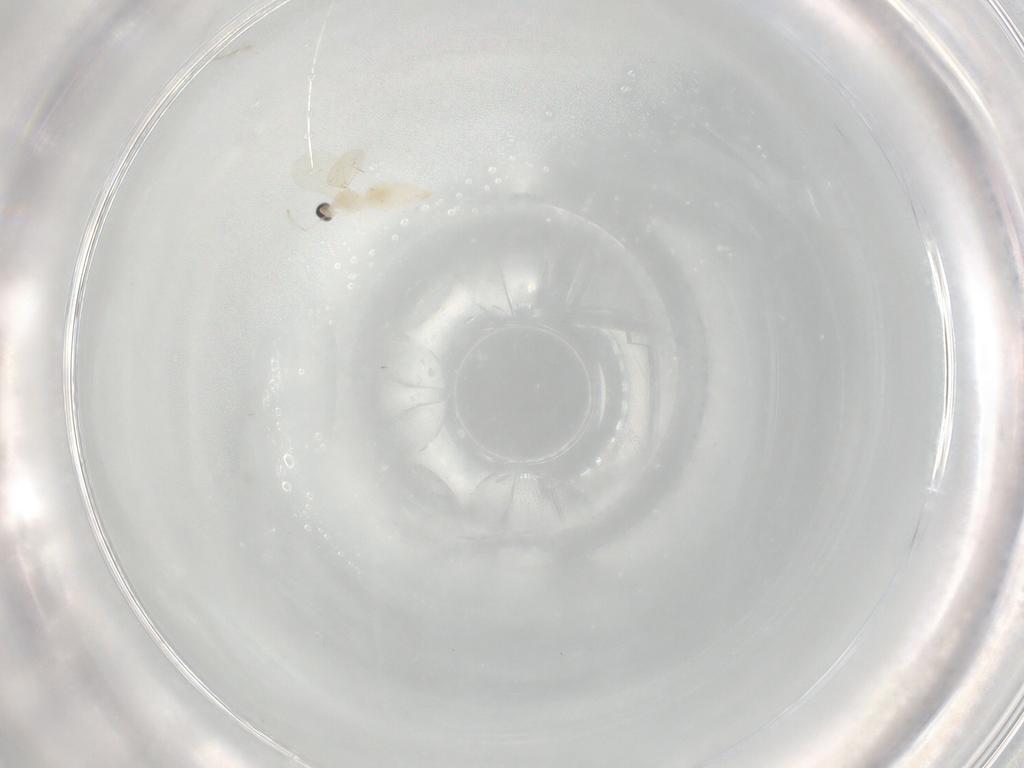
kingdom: Animalia
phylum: Arthropoda
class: Insecta
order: Diptera
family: Cecidomyiidae
